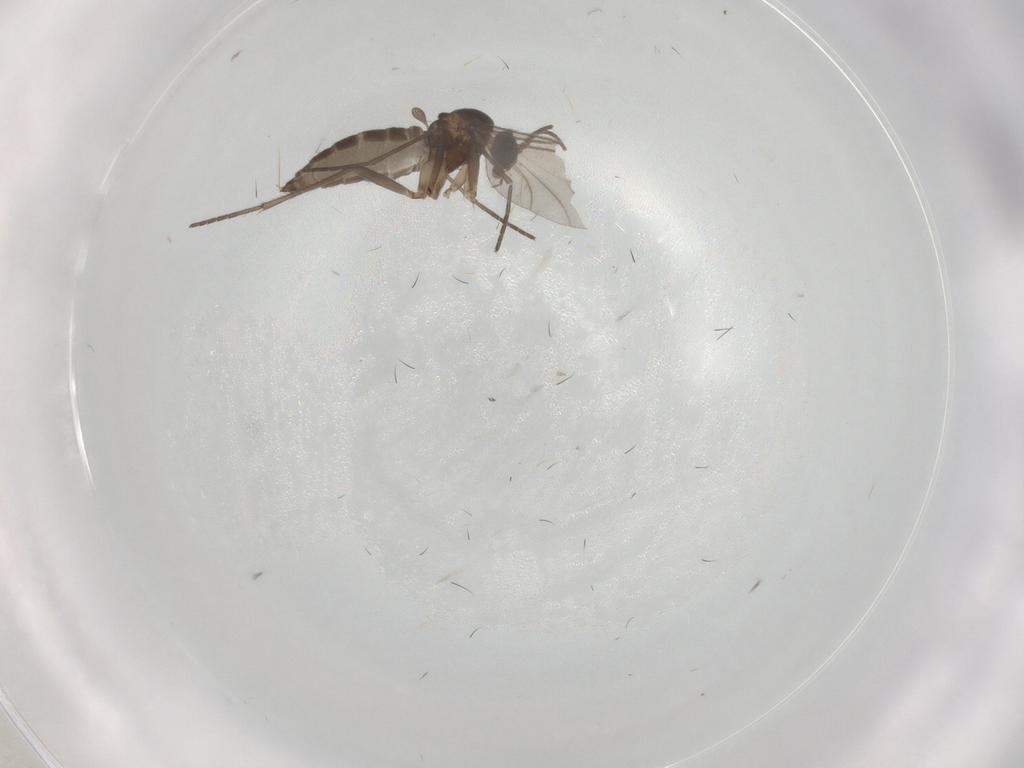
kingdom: Animalia
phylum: Arthropoda
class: Insecta
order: Diptera
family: Sciaridae
